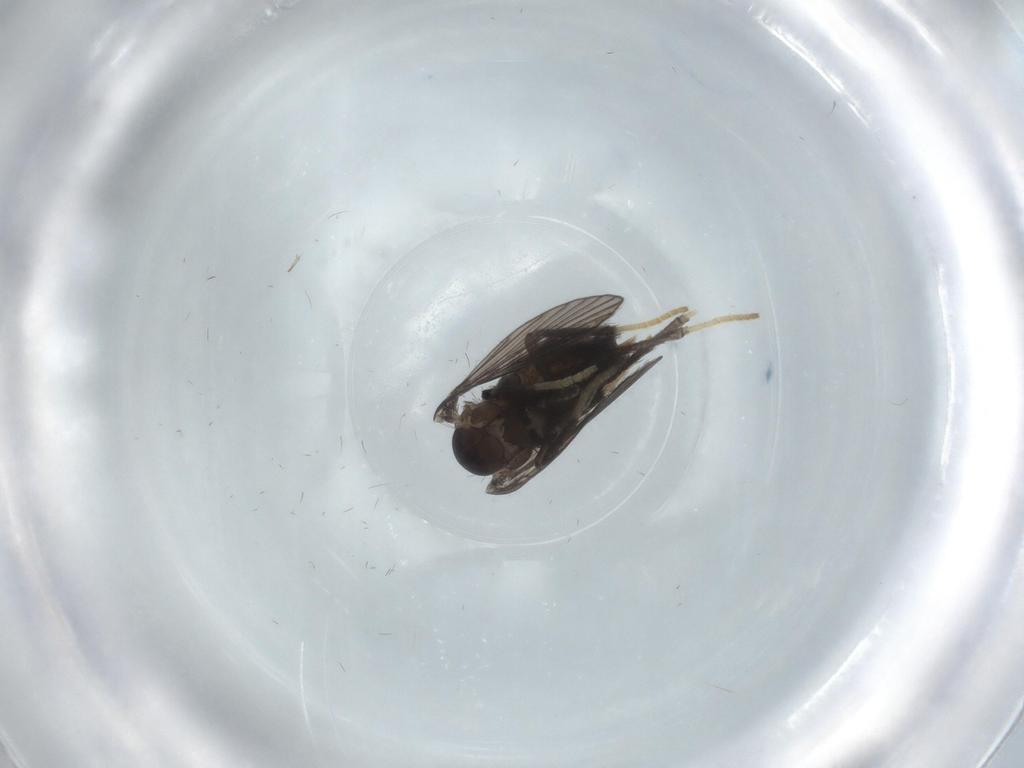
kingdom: Animalia
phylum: Arthropoda
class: Insecta
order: Diptera
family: Psychodidae
